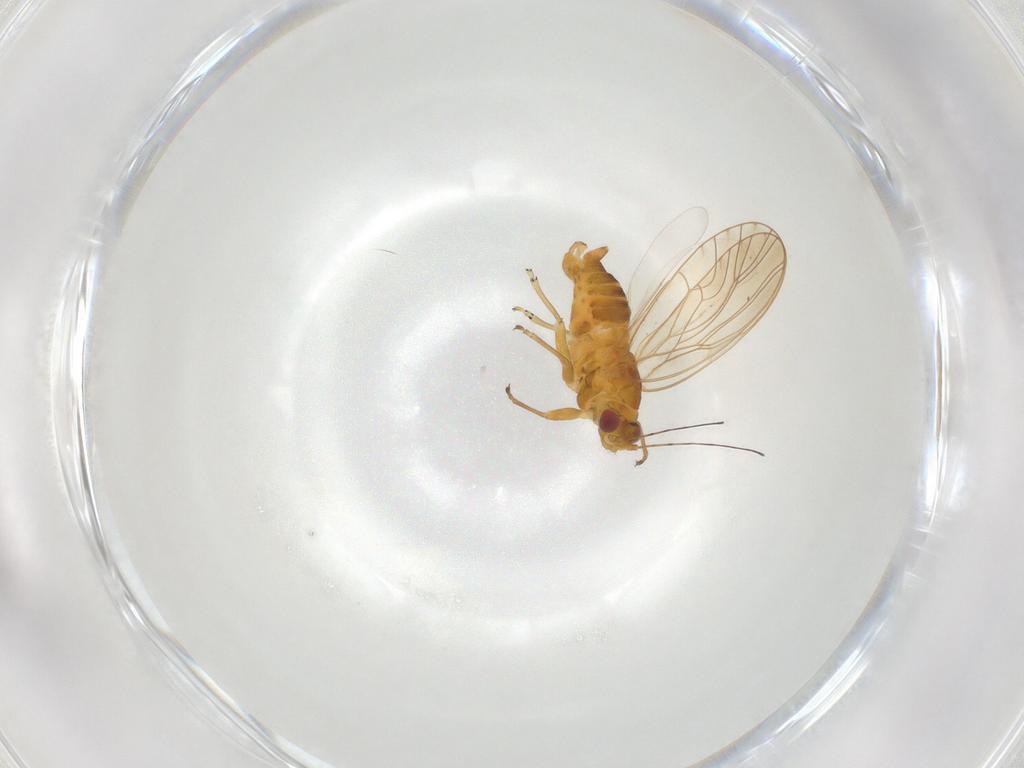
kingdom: Animalia
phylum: Arthropoda
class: Insecta
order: Hemiptera
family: Psyllidae
